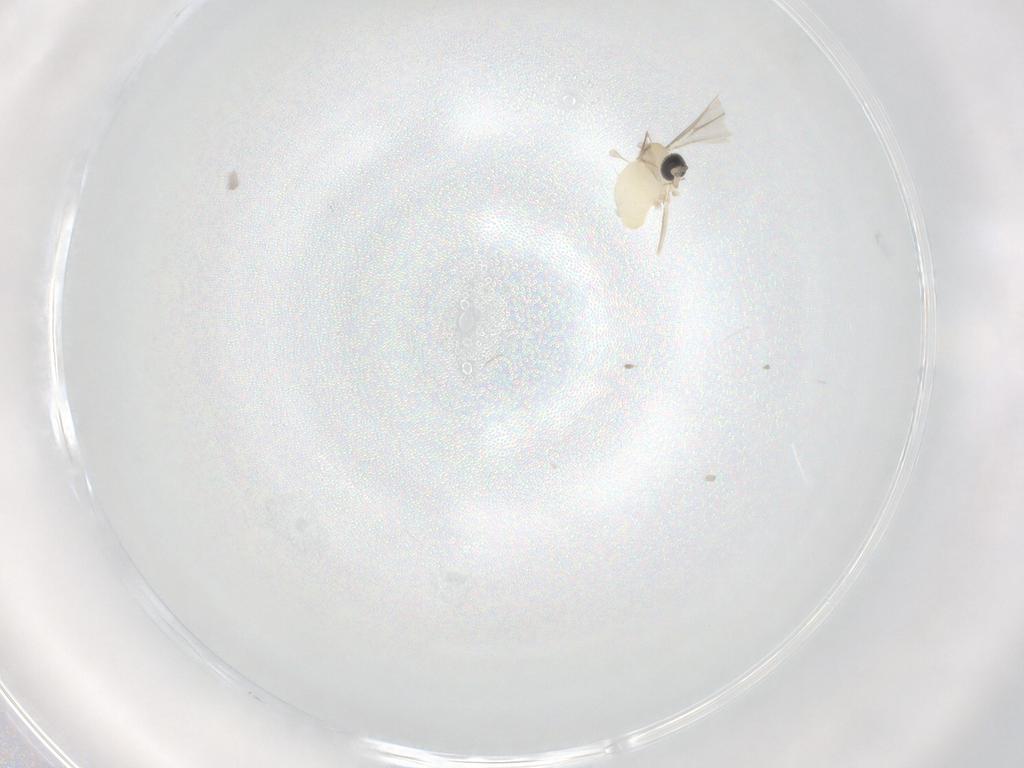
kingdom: Animalia
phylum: Arthropoda
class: Insecta
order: Diptera
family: Cecidomyiidae
